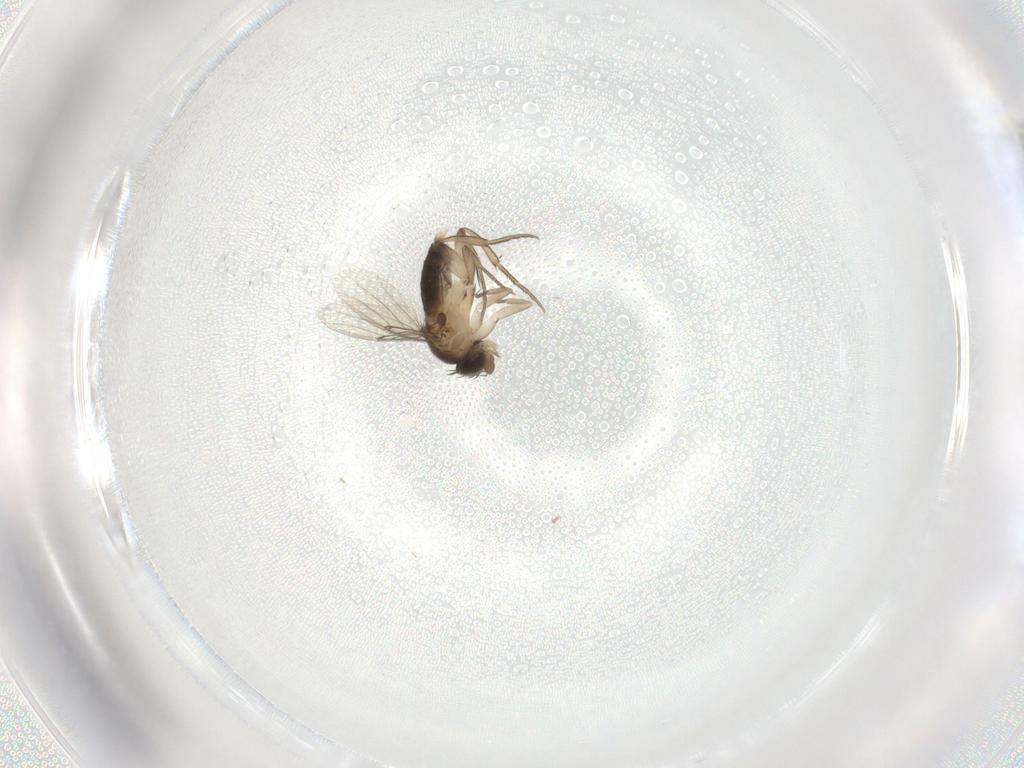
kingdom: Animalia
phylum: Arthropoda
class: Insecta
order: Diptera
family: Phoridae
